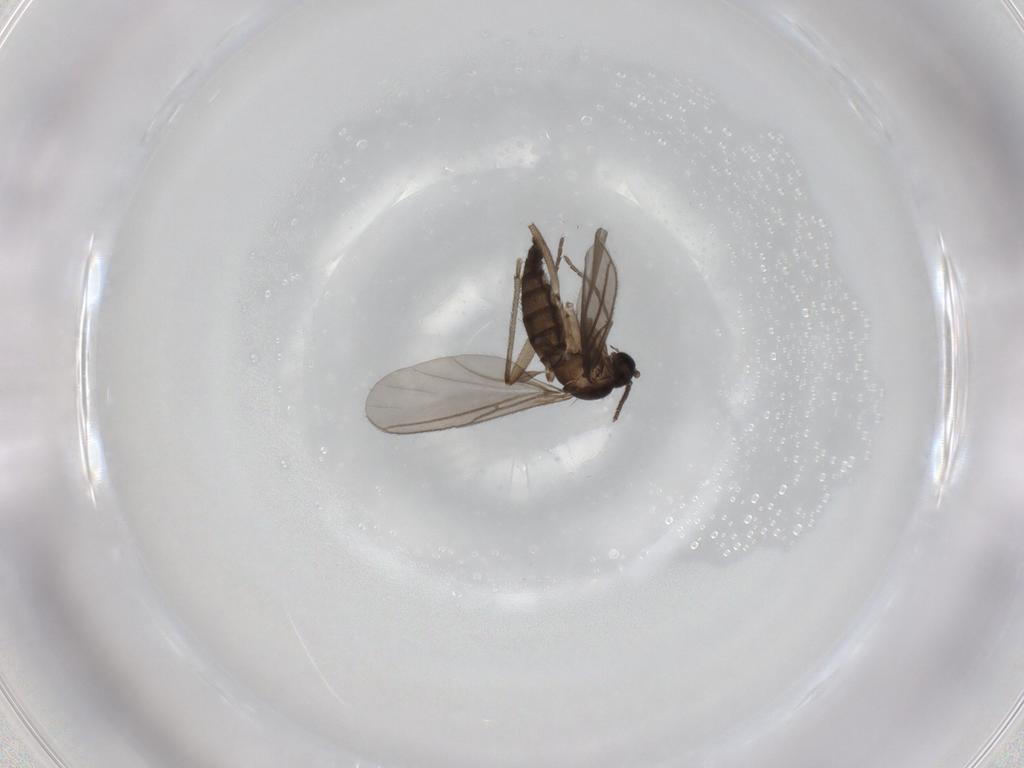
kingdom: Animalia
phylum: Arthropoda
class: Insecta
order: Diptera
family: Sciaridae
